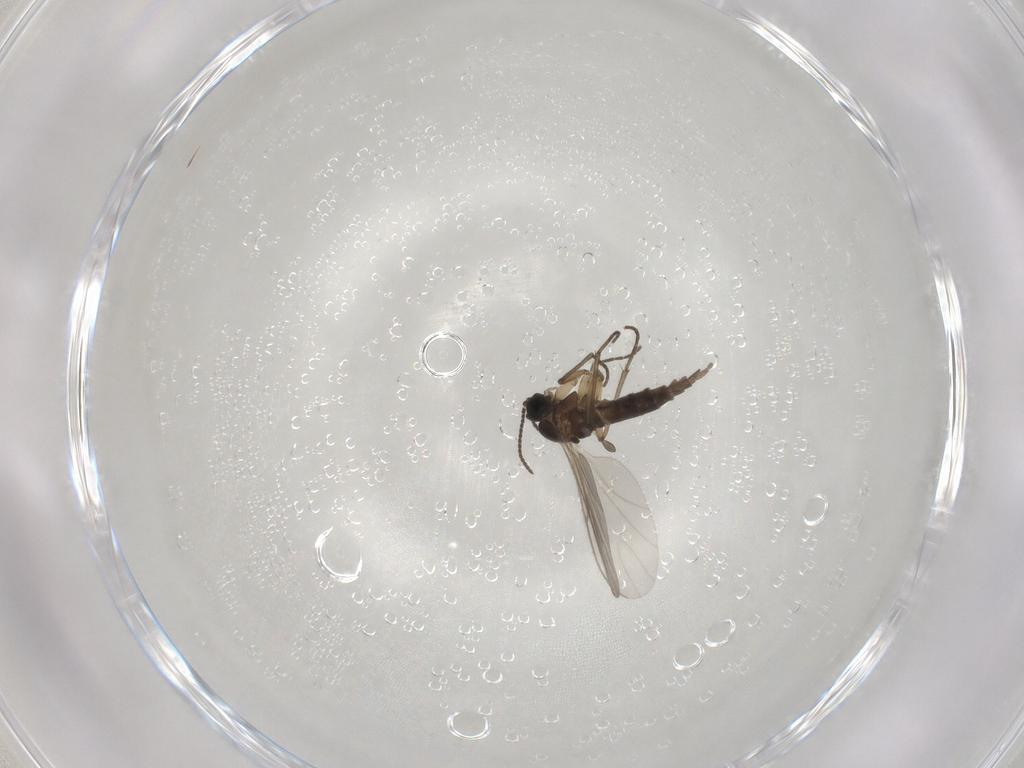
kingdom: Animalia
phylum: Arthropoda
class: Insecta
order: Diptera
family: Sciaridae
